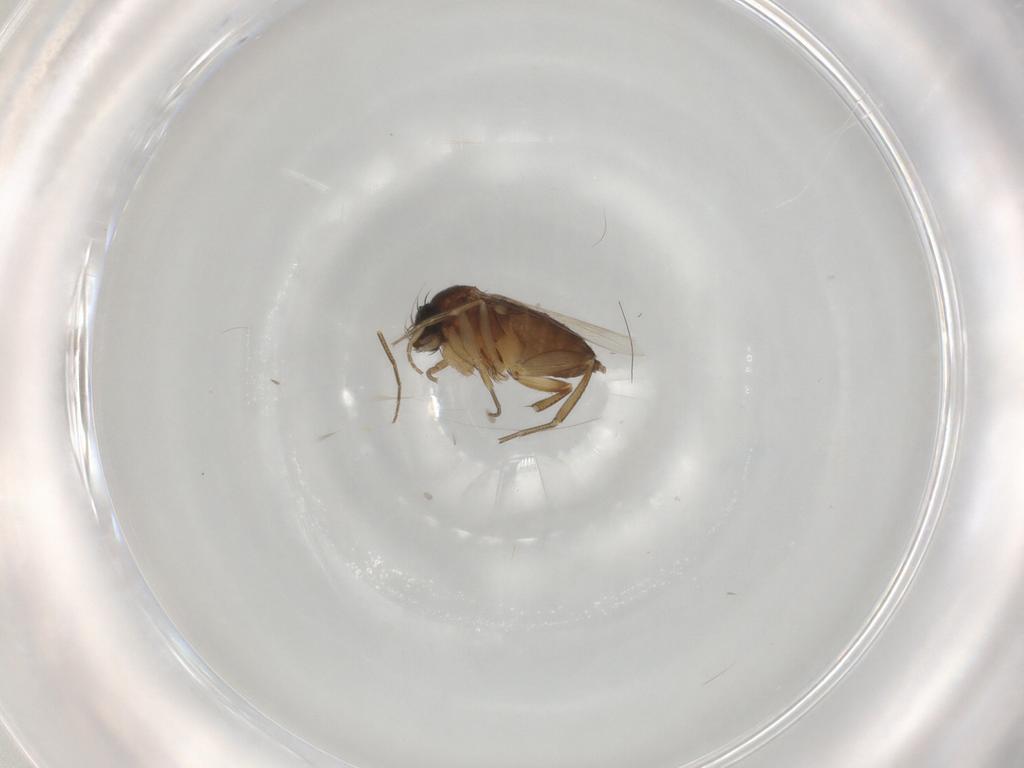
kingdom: Animalia
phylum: Arthropoda
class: Insecta
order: Diptera
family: Phoridae
